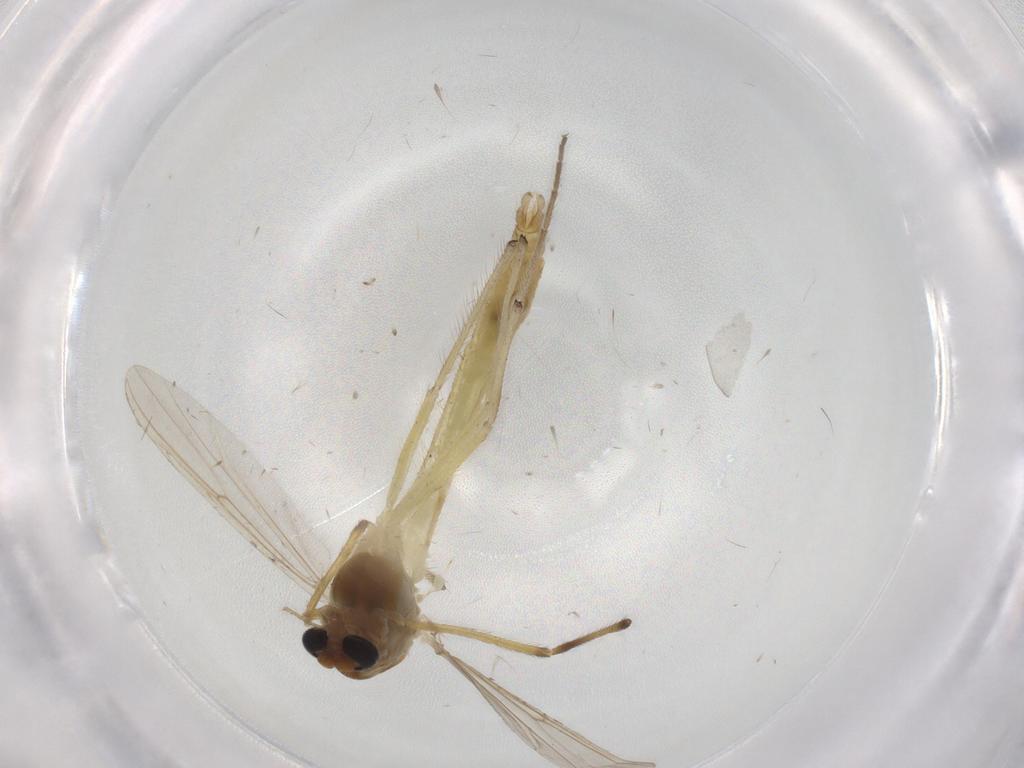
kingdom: Animalia
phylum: Arthropoda
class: Insecta
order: Diptera
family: Chironomidae
